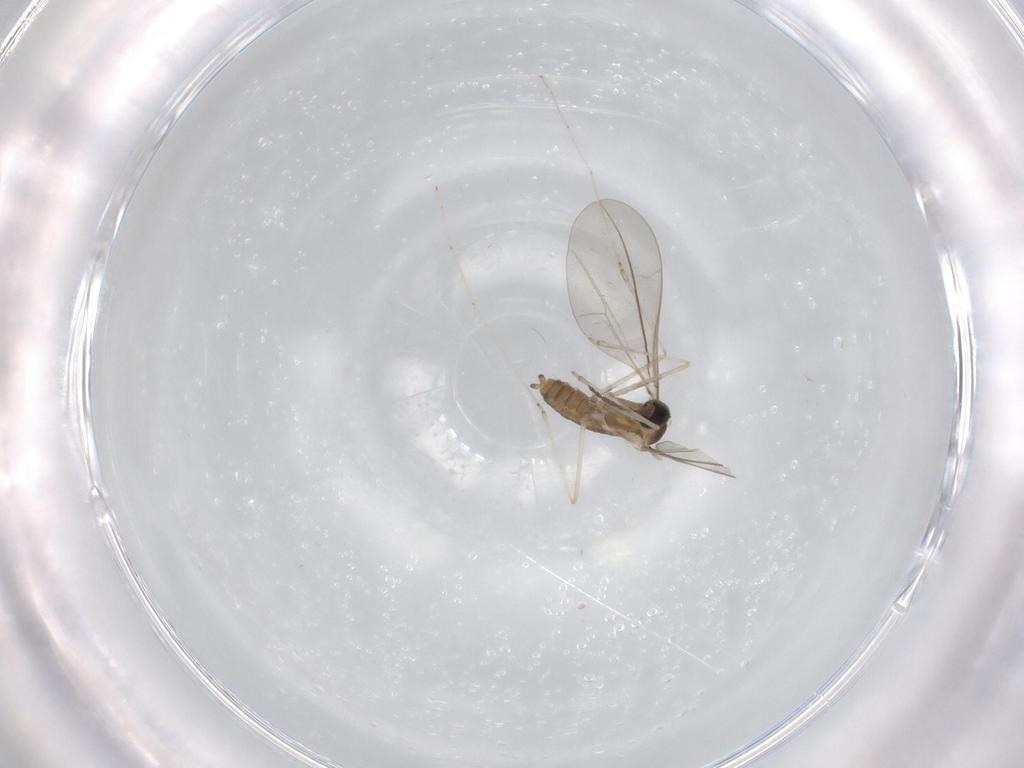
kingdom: Animalia
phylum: Arthropoda
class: Insecta
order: Diptera
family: Cecidomyiidae
